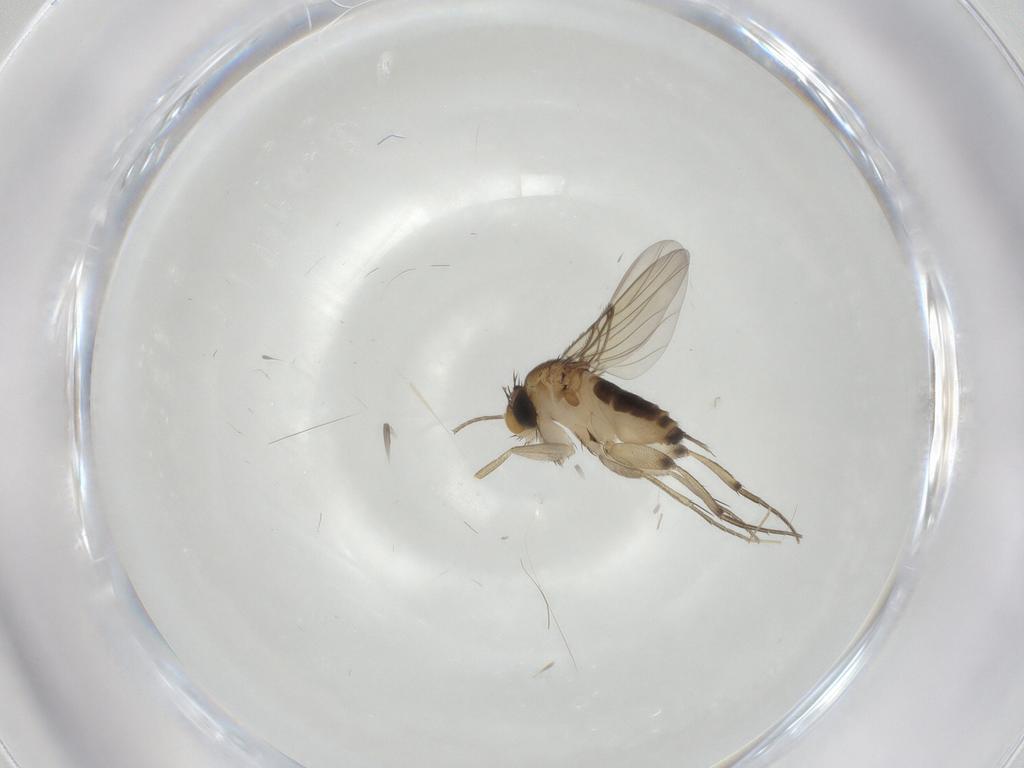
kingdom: Animalia
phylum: Arthropoda
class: Insecta
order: Diptera
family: Cecidomyiidae
